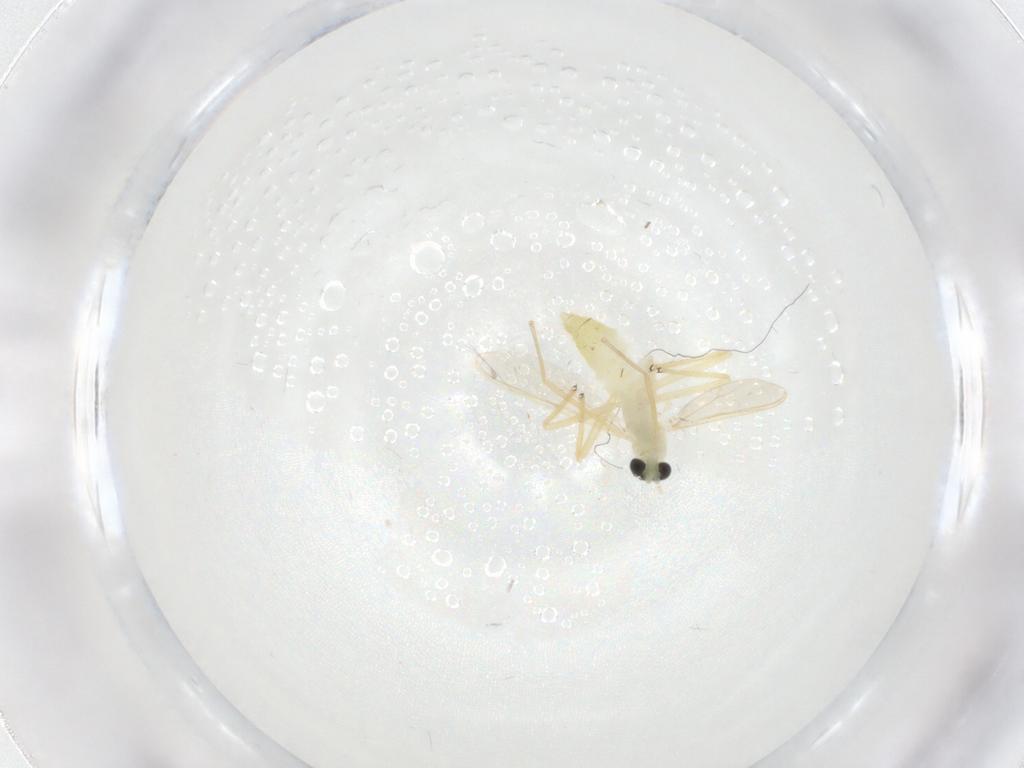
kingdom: Animalia
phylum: Arthropoda
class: Insecta
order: Diptera
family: Chironomidae
